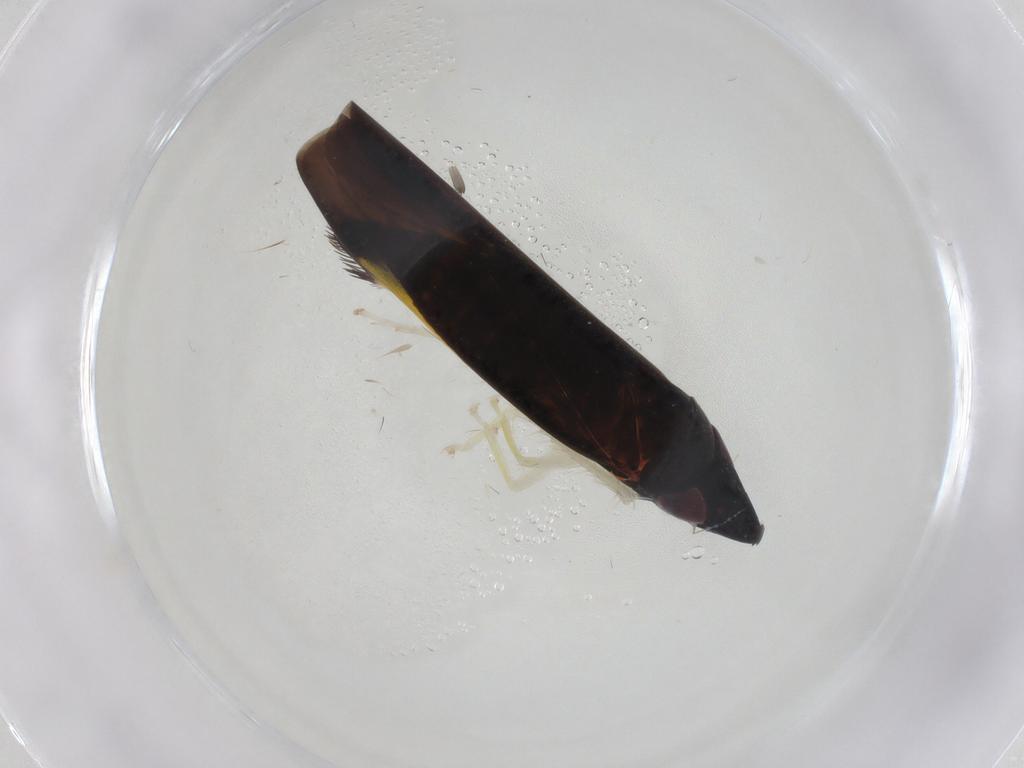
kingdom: Animalia
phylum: Arthropoda
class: Insecta
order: Hemiptera
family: Cicadellidae
